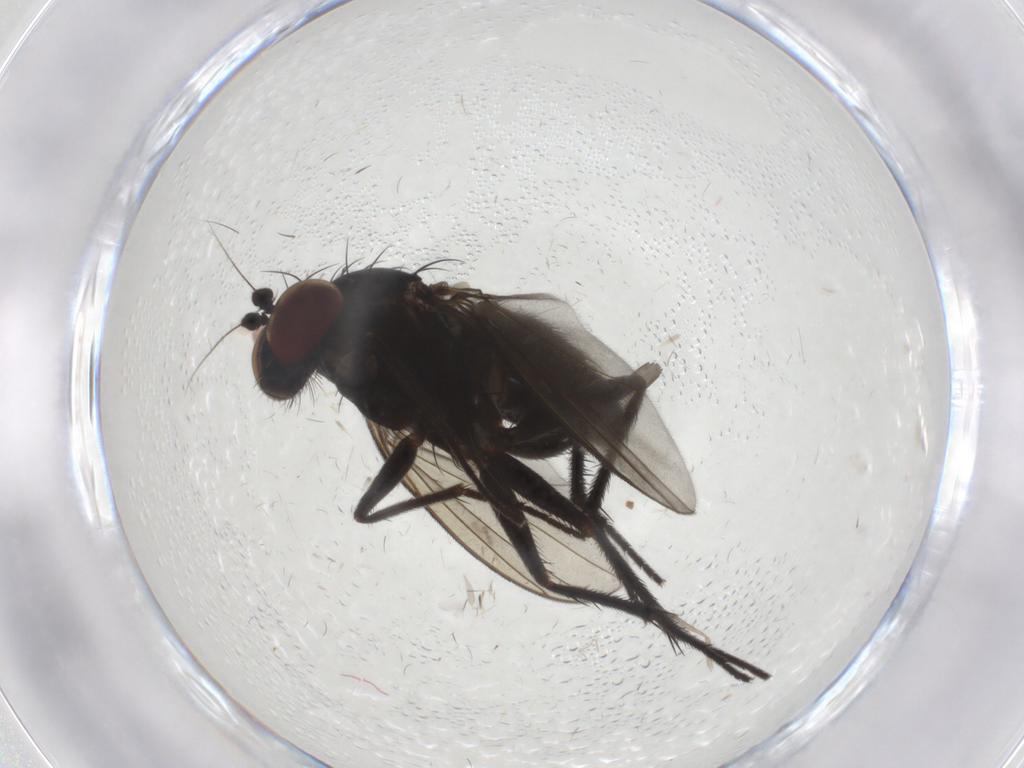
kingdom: Animalia
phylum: Arthropoda
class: Insecta
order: Diptera
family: Dolichopodidae
